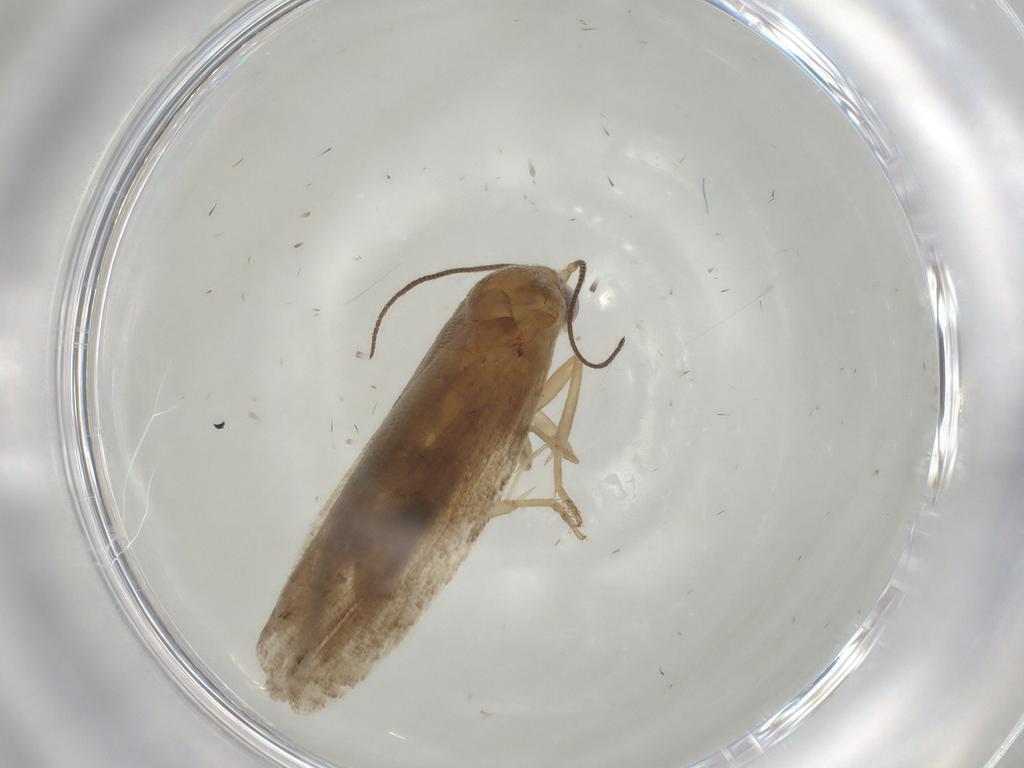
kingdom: Animalia
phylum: Arthropoda
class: Insecta
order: Lepidoptera
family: Tortricidae
